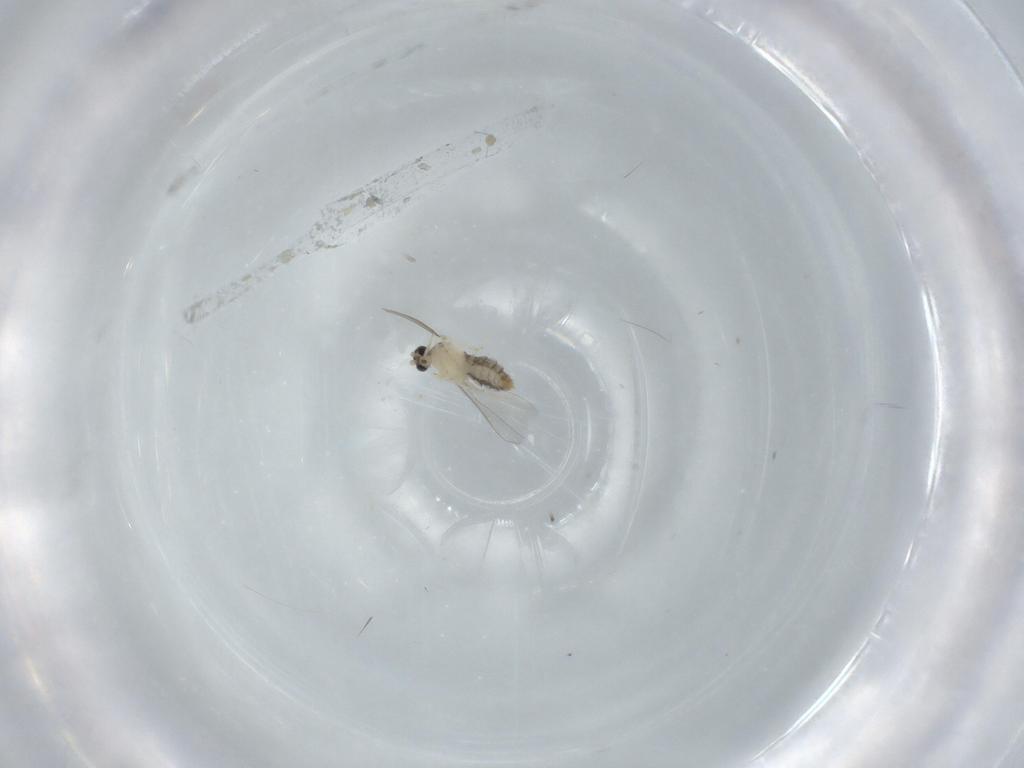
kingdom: Animalia
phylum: Arthropoda
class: Insecta
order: Diptera
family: Tabanidae
